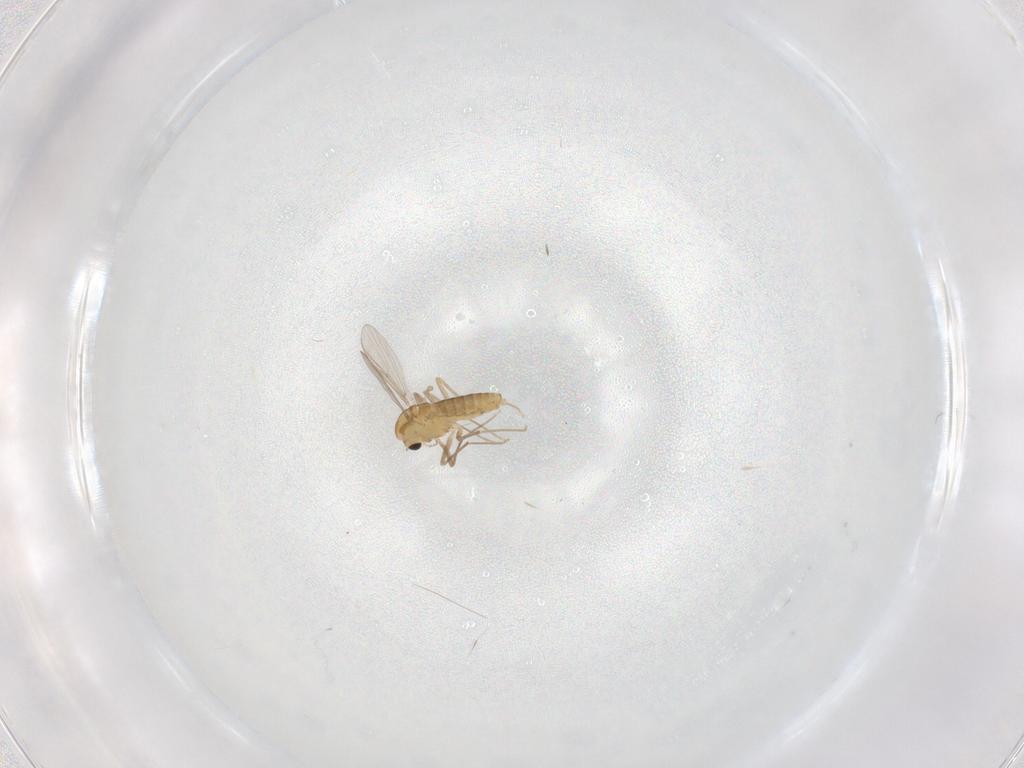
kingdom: Animalia
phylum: Arthropoda
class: Insecta
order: Diptera
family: Chironomidae
